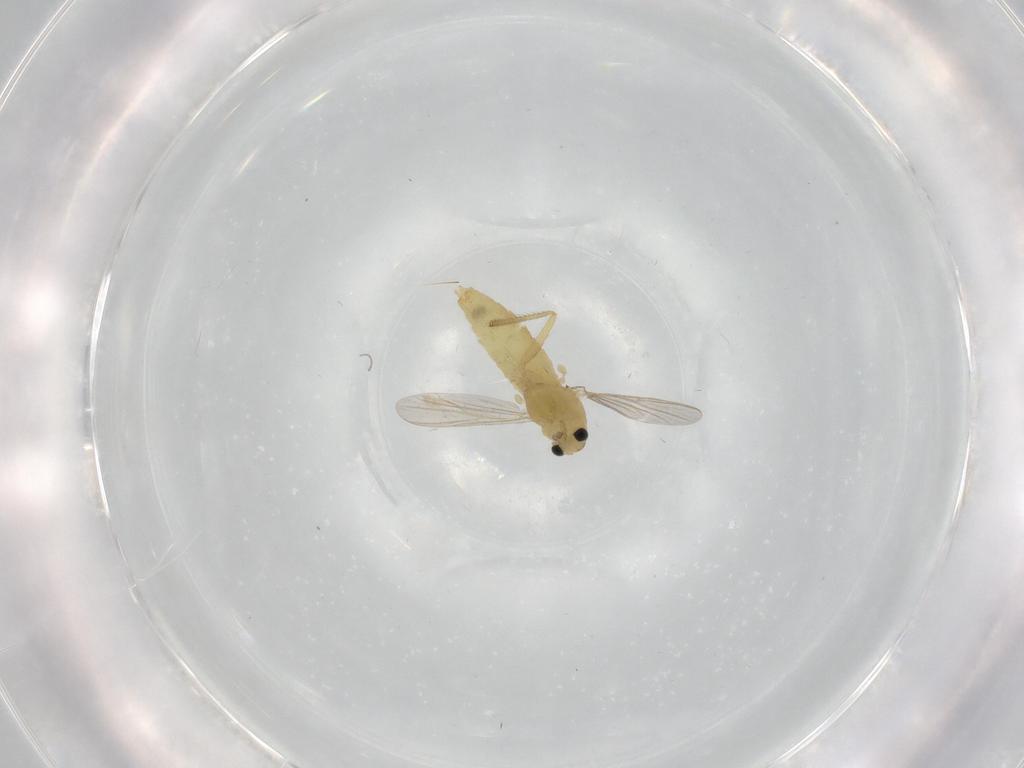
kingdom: Animalia
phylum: Arthropoda
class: Insecta
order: Diptera
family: Chironomidae
